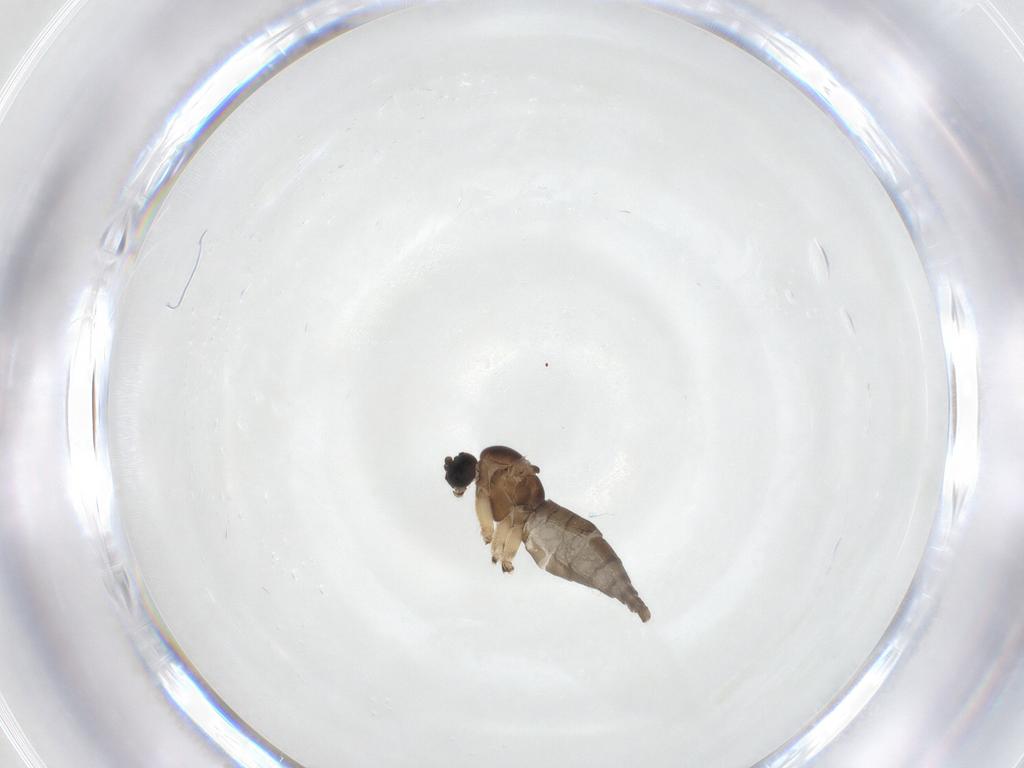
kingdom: Animalia
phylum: Arthropoda
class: Insecta
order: Diptera
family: Sciaridae
